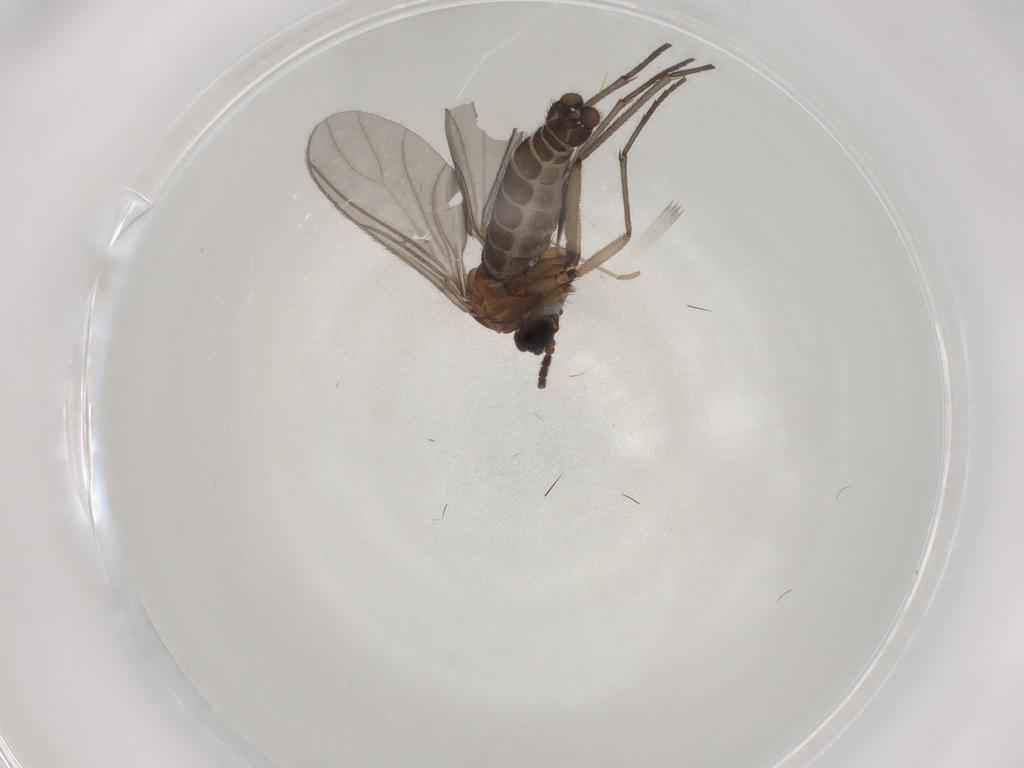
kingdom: Animalia
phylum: Arthropoda
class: Insecta
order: Diptera
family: Sciaridae
